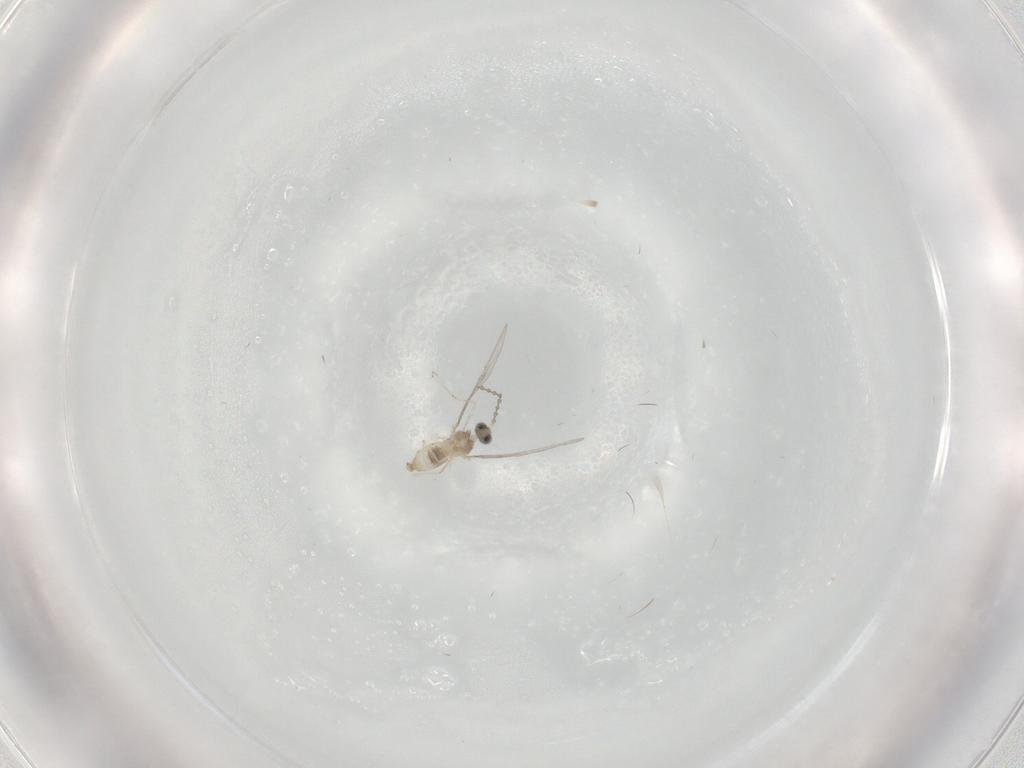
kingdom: Animalia
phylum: Arthropoda
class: Insecta
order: Diptera
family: Cecidomyiidae
